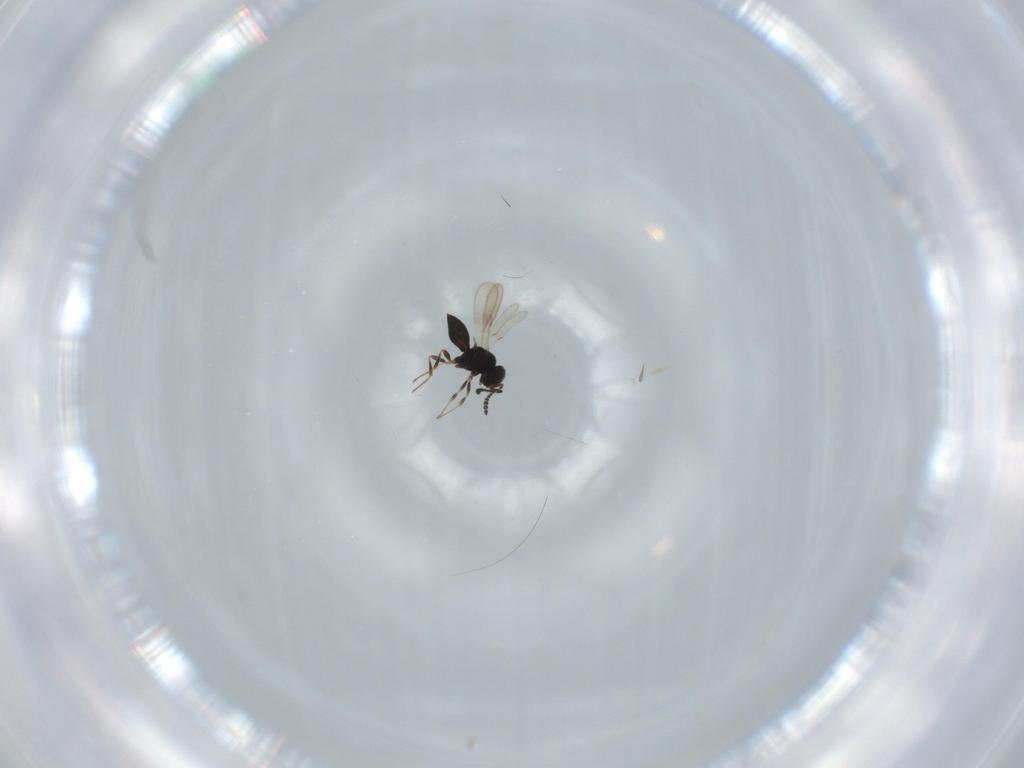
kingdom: Animalia
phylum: Arthropoda
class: Insecta
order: Hymenoptera
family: Scelionidae
